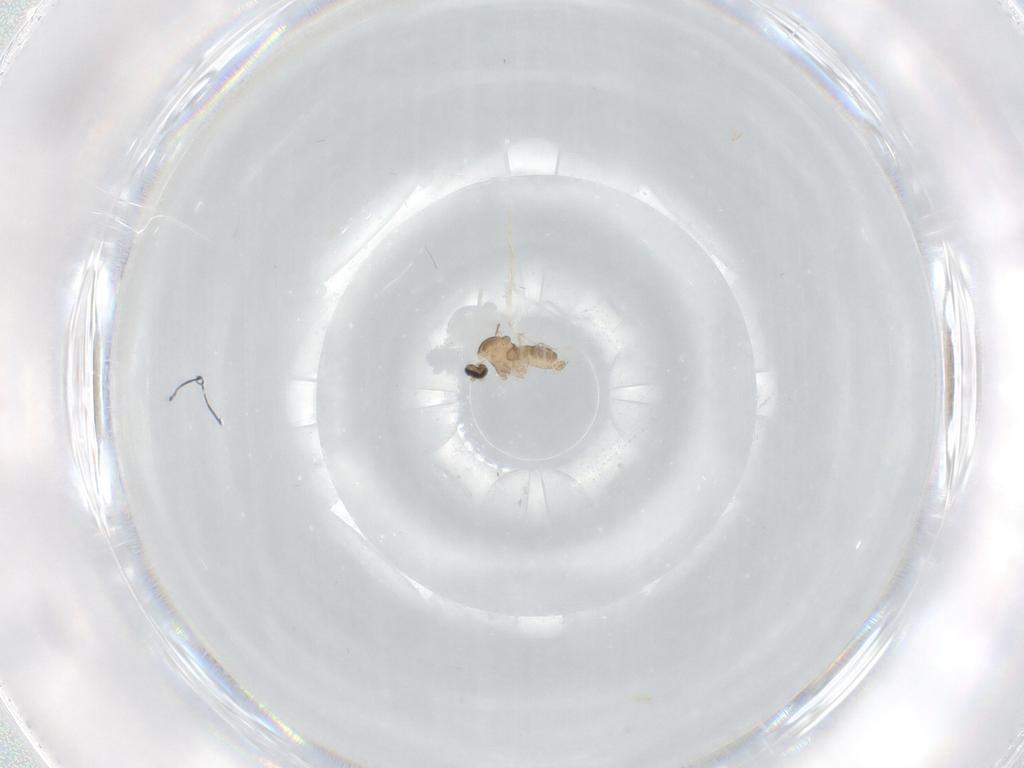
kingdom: Animalia
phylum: Arthropoda
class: Insecta
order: Diptera
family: Cecidomyiidae
